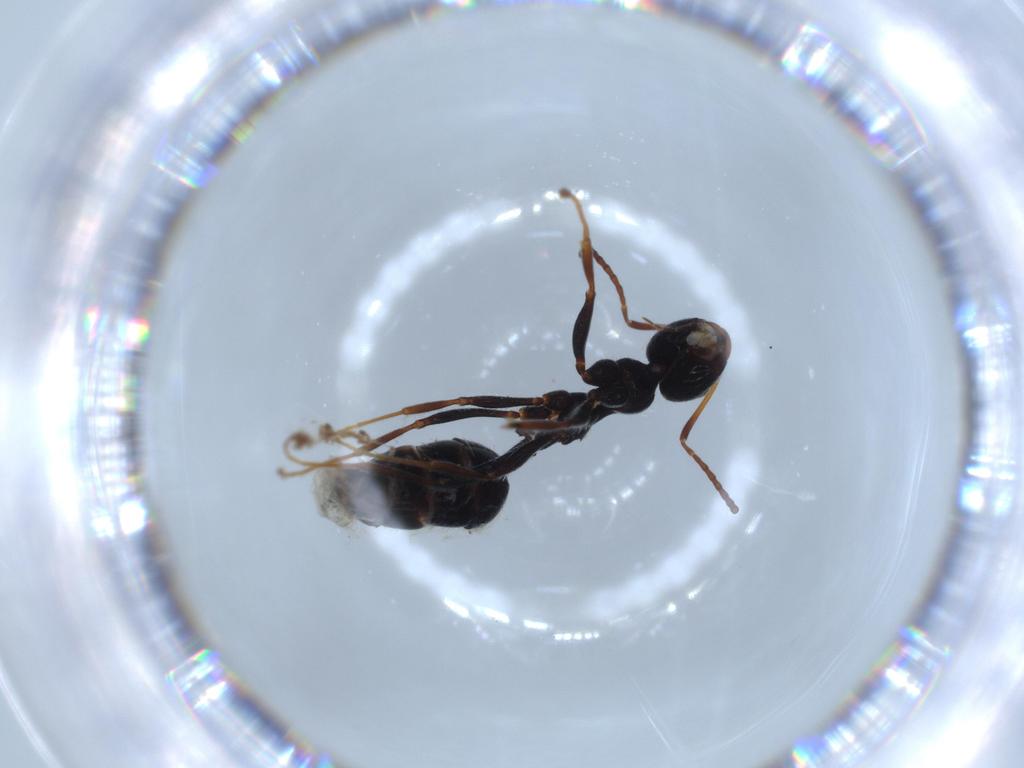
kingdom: Animalia
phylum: Arthropoda
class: Insecta
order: Hymenoptera
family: Formicidae
